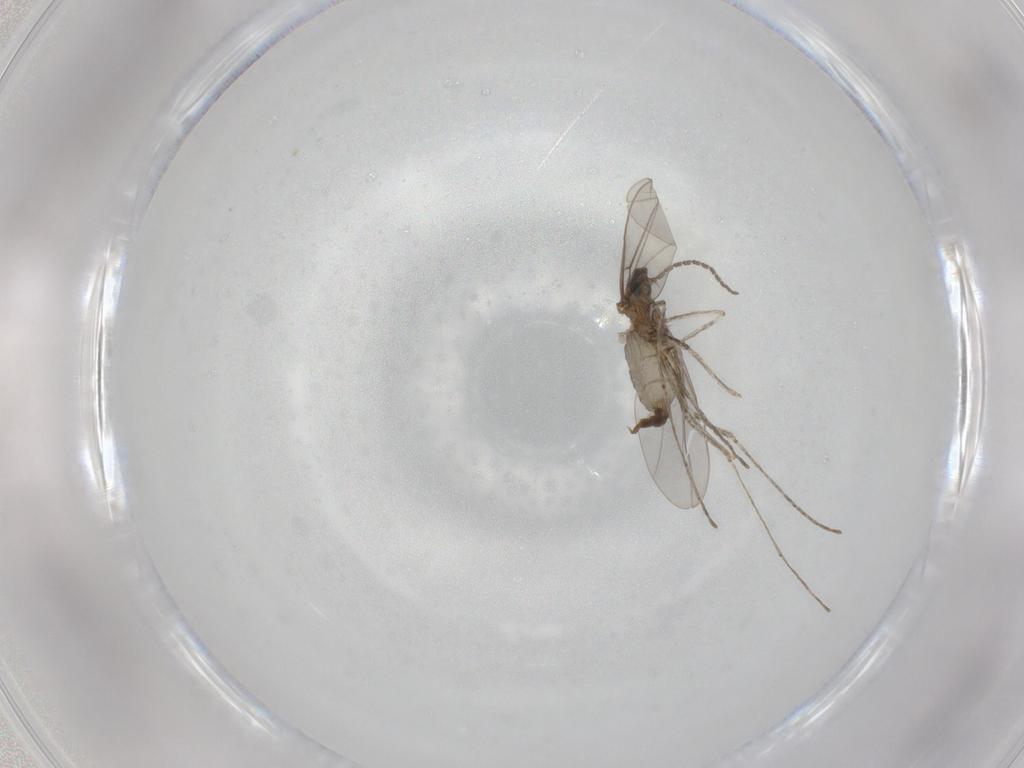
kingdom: Animalia
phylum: Arthropoda
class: Insecta
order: Diptera
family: Cecidomyiidae
